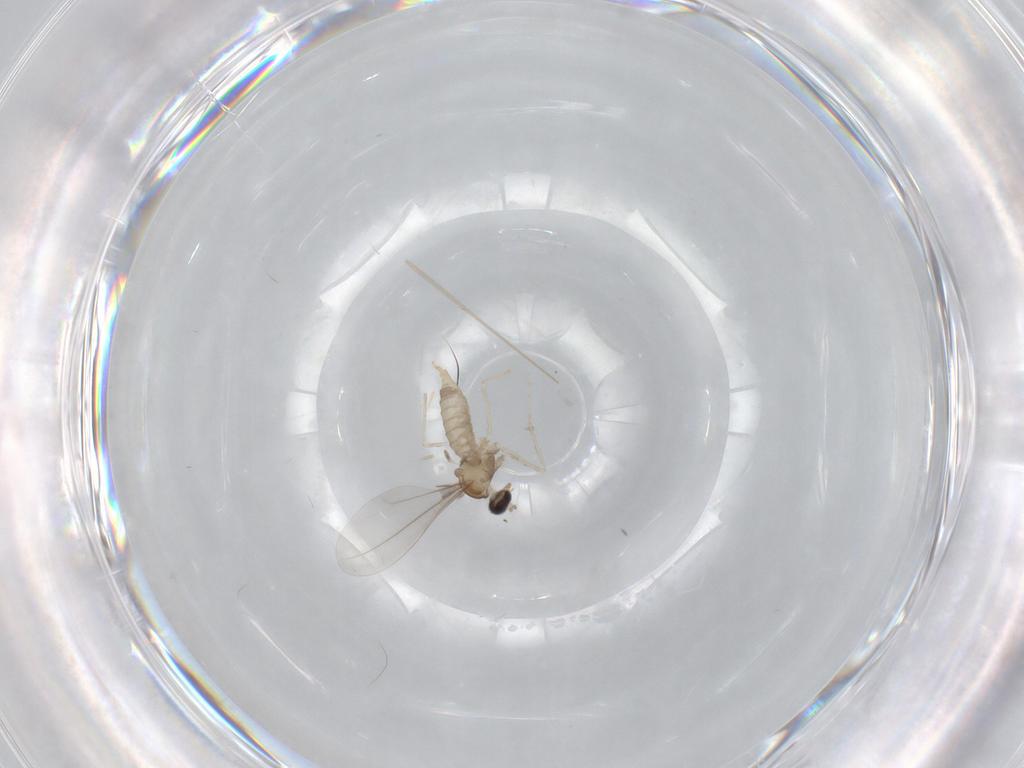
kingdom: Animalia
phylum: Arthropoda
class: Insecta
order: Diptera
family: Cecidomyiidae
